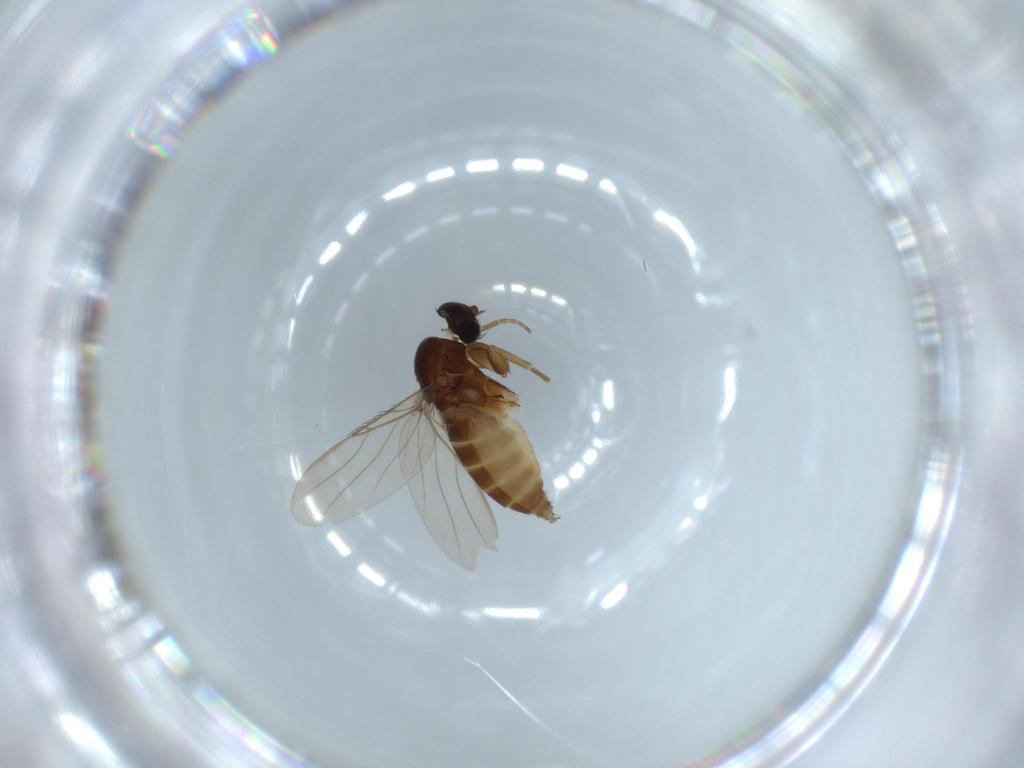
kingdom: Animalia
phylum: Arthropoda
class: Insecta
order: Diptera
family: Phoridae
